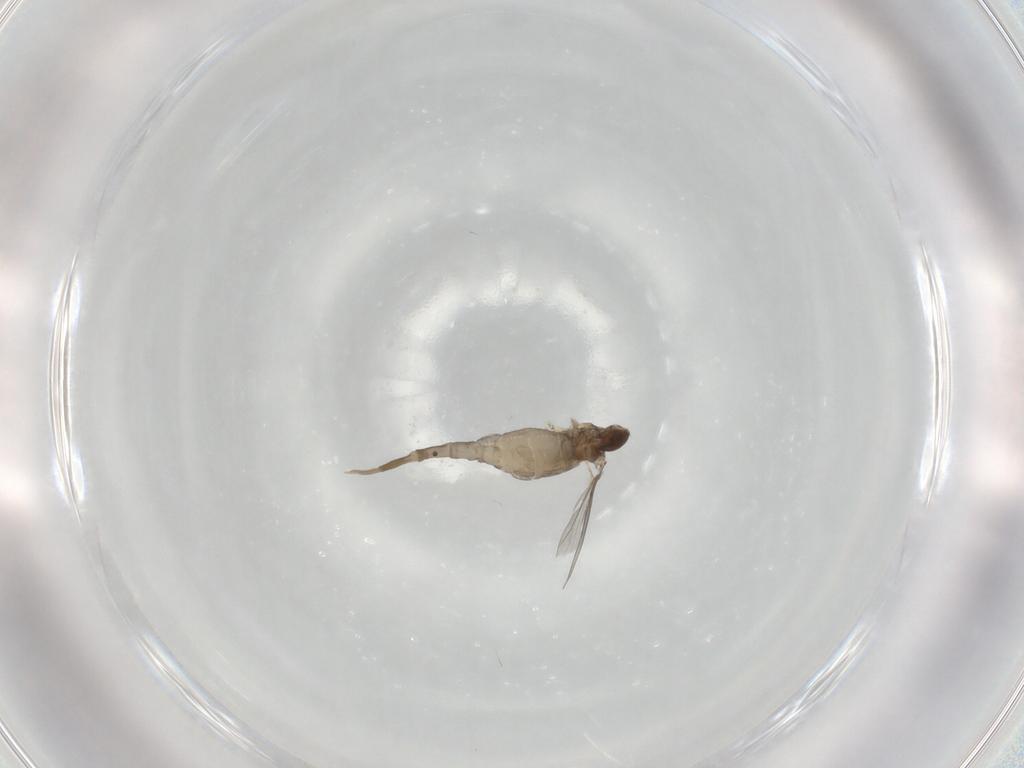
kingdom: Animalia
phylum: Arthropoda
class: Insecta
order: Diptera
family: Cecidomyiidae
